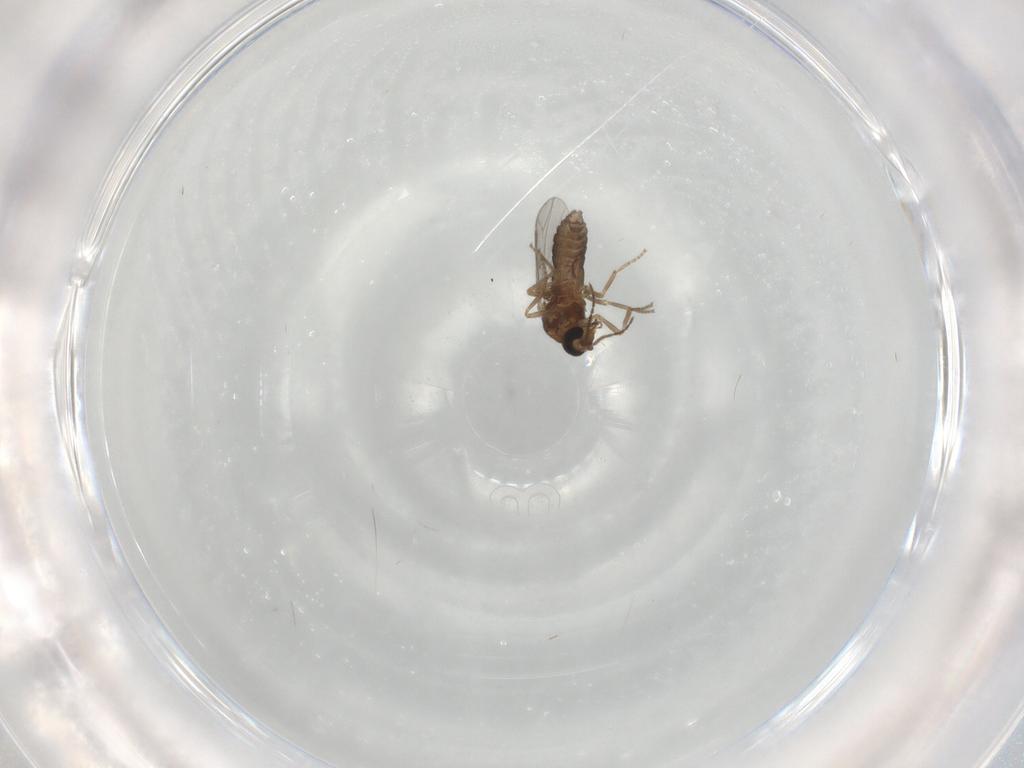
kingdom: Animalia
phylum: Arthropoda
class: Insecta
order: Diptera
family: Ceratopogonidae
